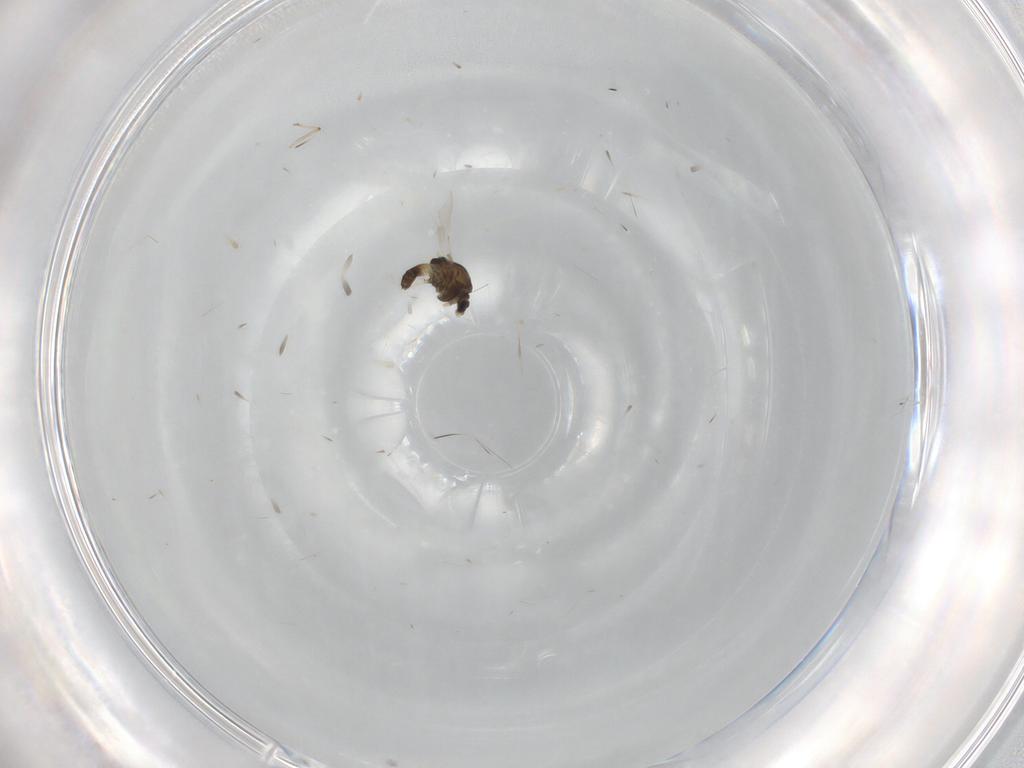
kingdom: Animalia
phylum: Arthropoda
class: Insecta
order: Diptera
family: Chironomidae
